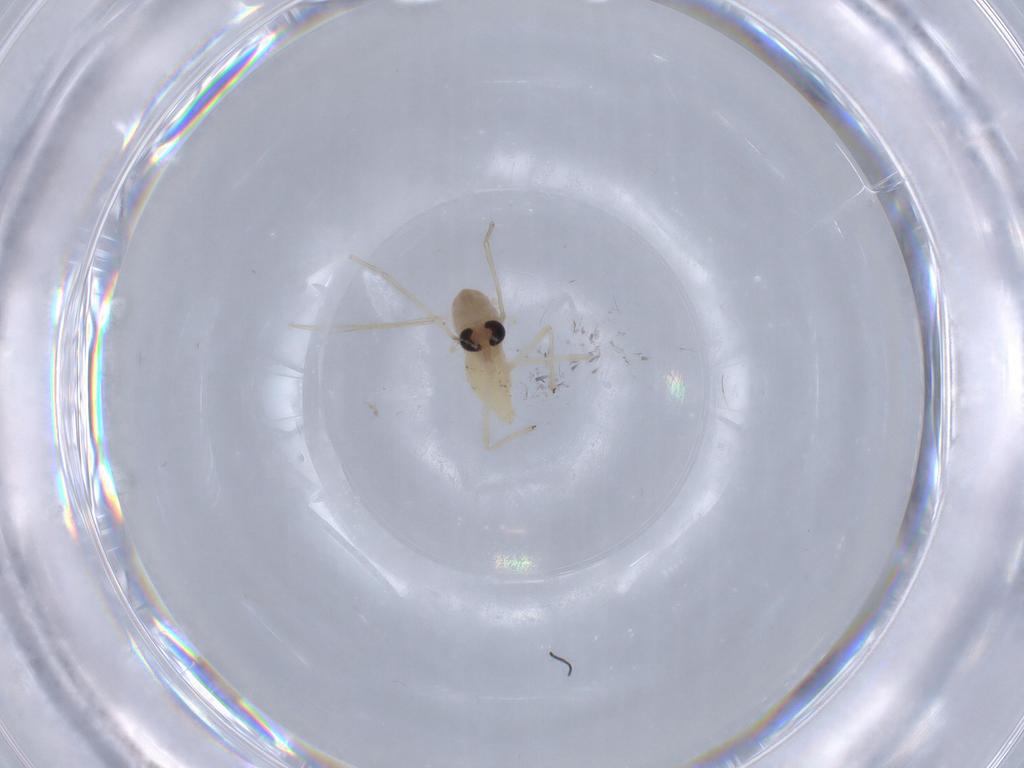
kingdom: Animalia
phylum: Arthropoda
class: Insecta
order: Diptera
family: Chironomidae
